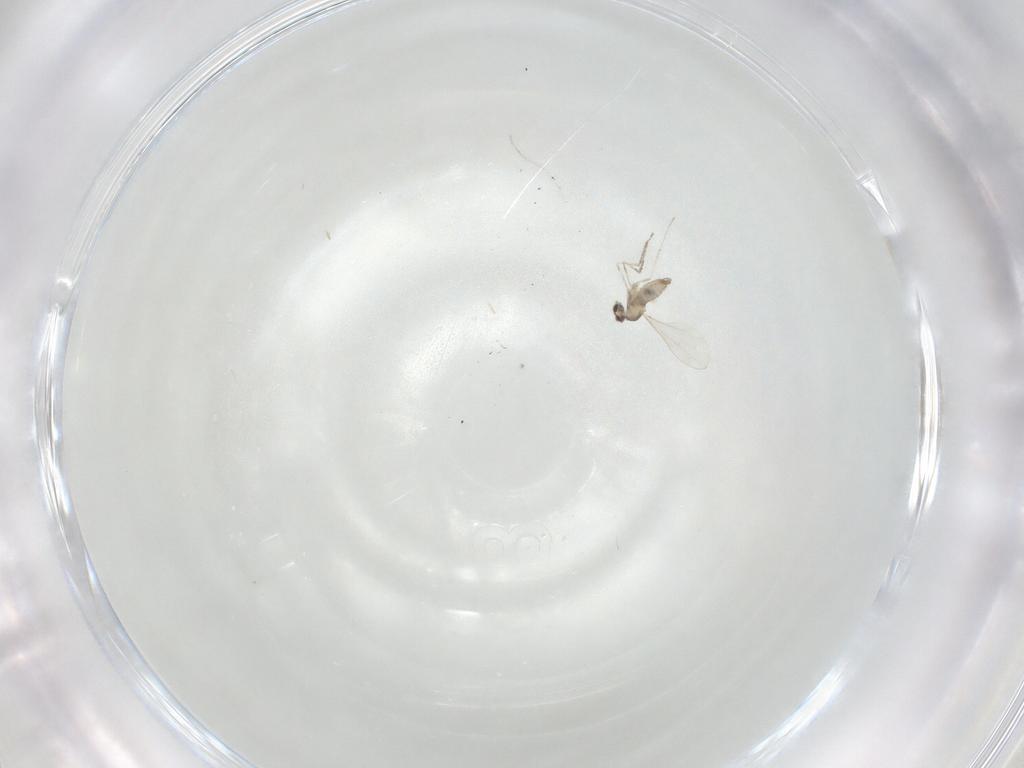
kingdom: Animalia
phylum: Arthropoda
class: Insecta
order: Diptera
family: Cecidomyiidae
